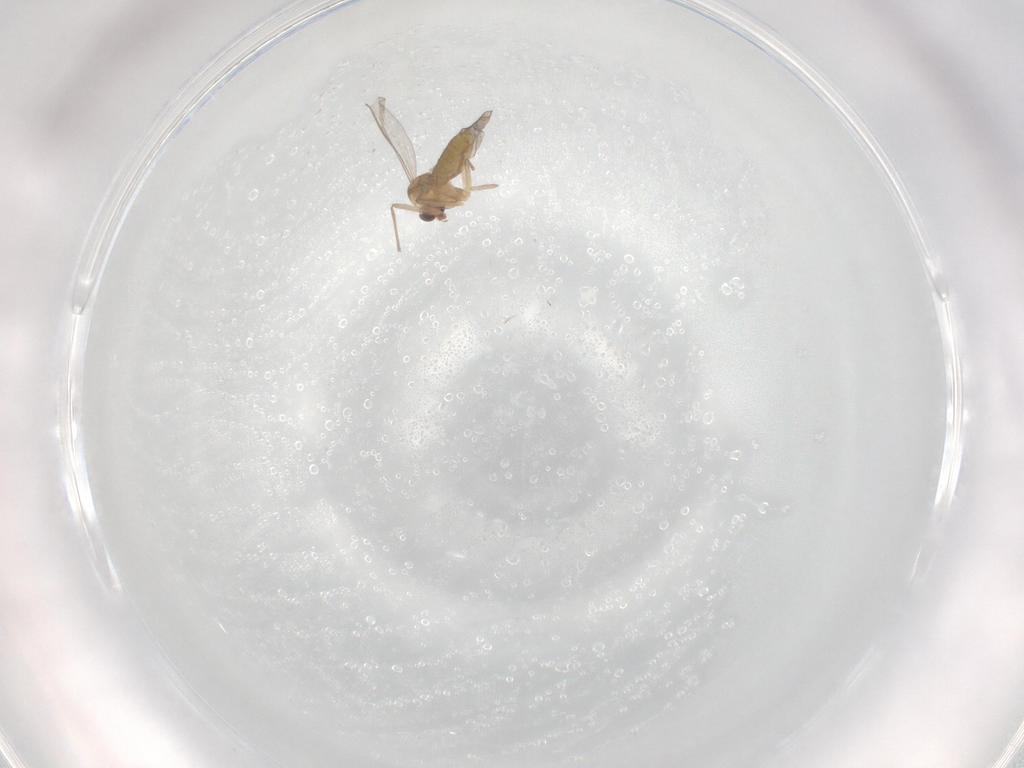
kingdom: Animalia
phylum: Arthropoda
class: Insecta
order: Diptera
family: Chironomidae
